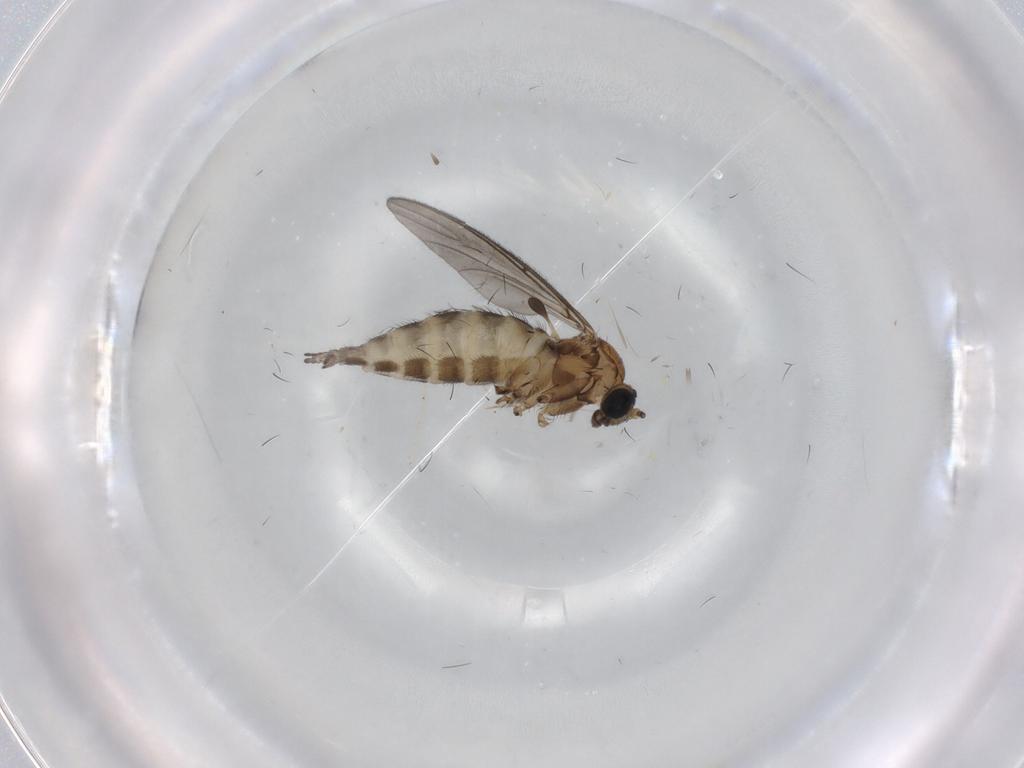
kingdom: Animalia
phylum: Arthropoda
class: Insecta
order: Diptera
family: Sciaridae
